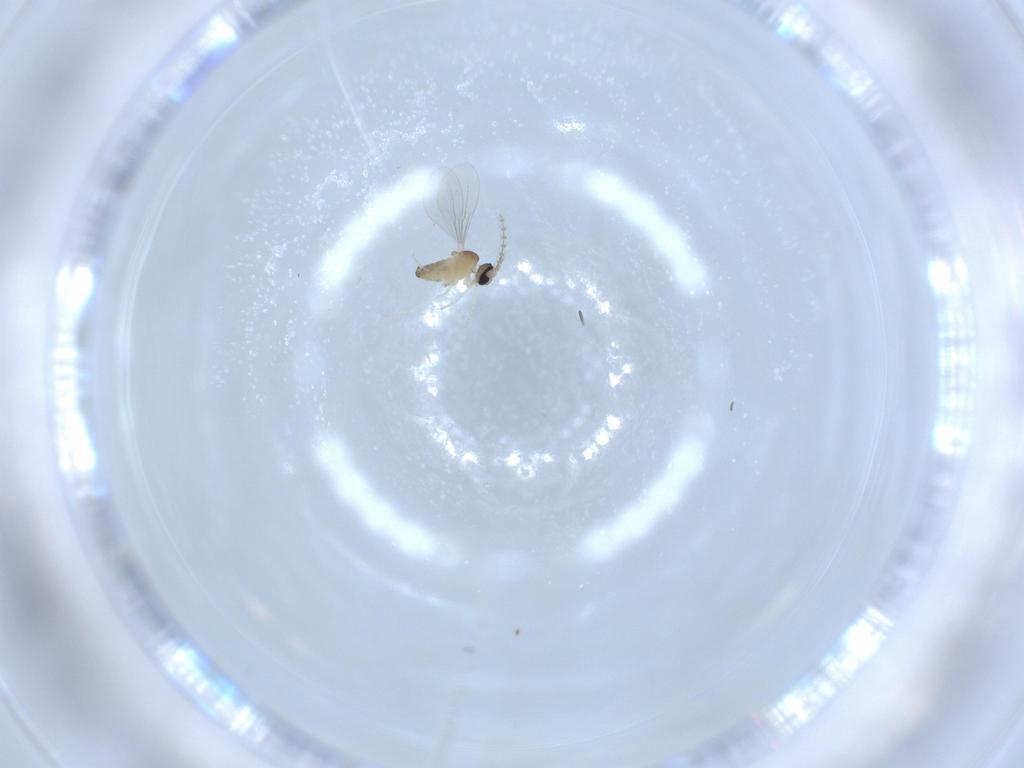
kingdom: Animalia
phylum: Arthropoda
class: Insecta
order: Diptera
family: Cecidomyiidae
